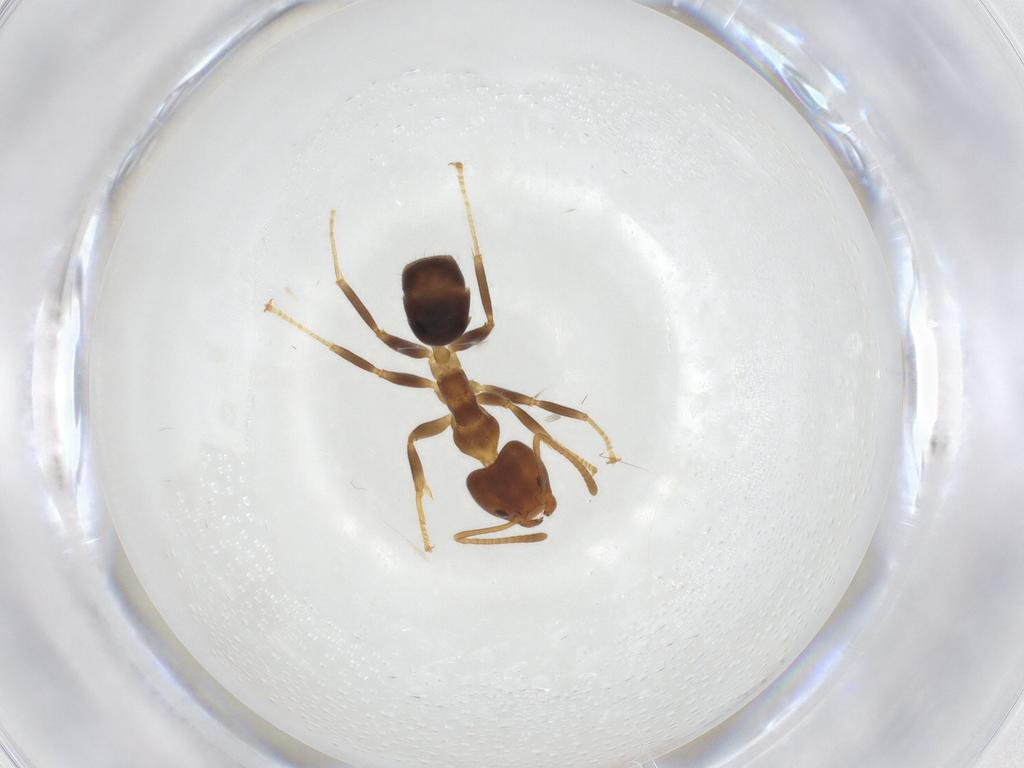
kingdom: Animalia
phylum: Arthropoda
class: Insecta
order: Hymenoptera
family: Formicidae
